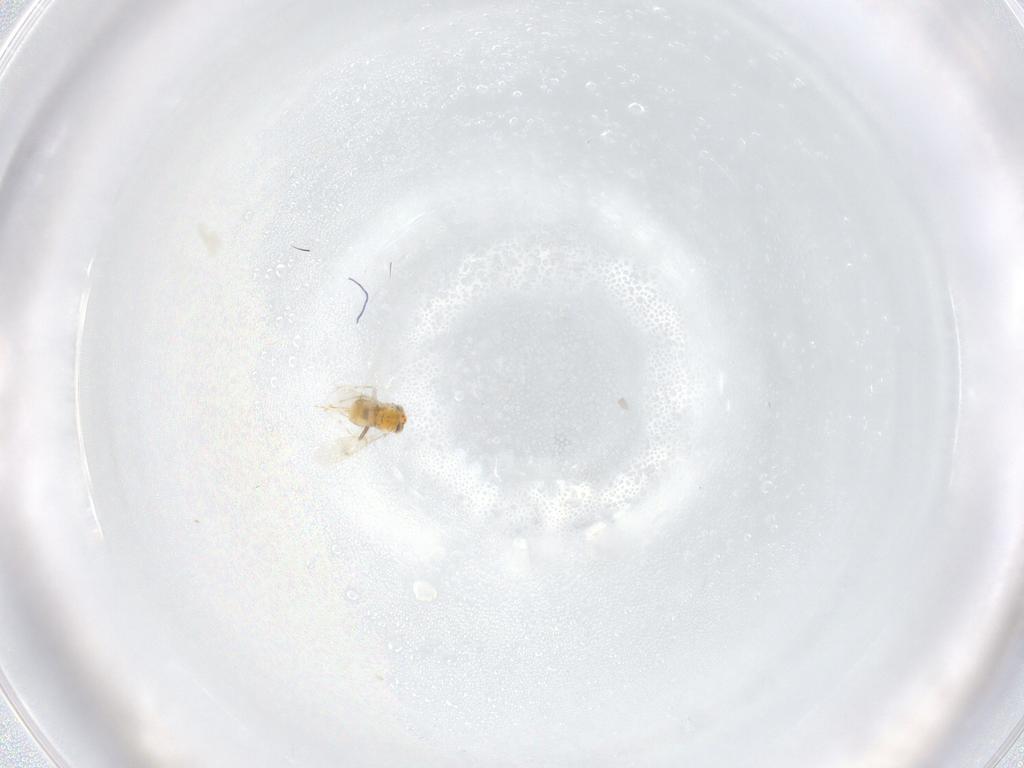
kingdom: Animalia
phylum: Arthropoda
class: Insecta
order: Hymenoptera
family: Aphelinidae
